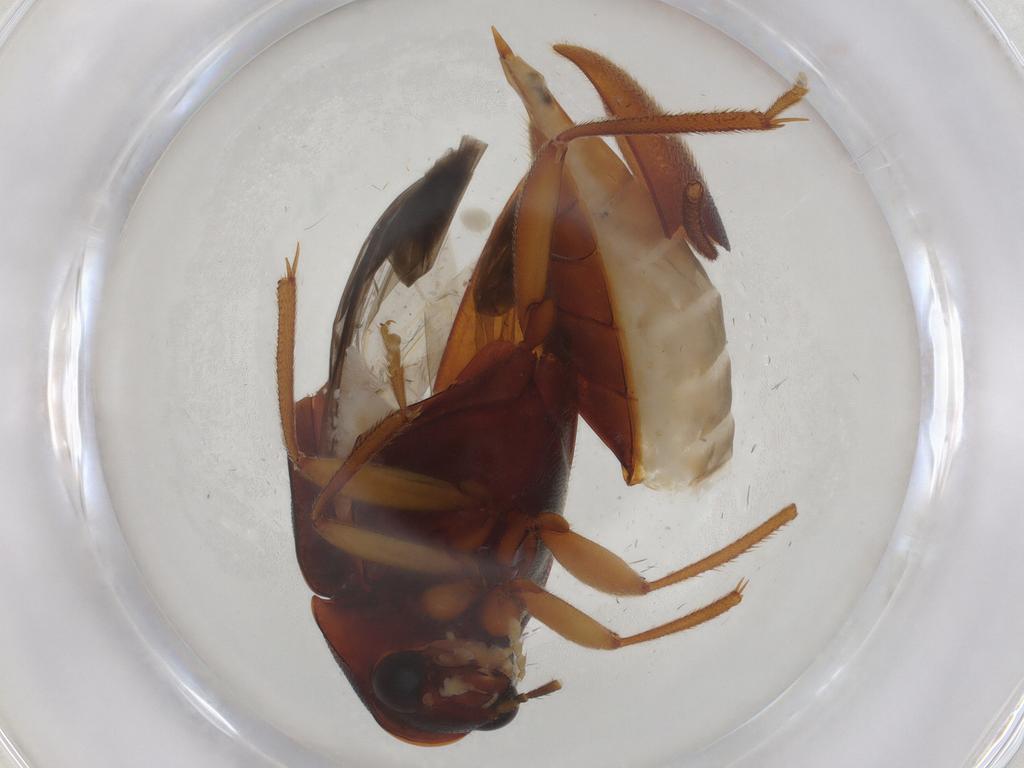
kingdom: Animalia
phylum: Arthropoda
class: Insecta
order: Coleoptera
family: Ptilodactylidae
